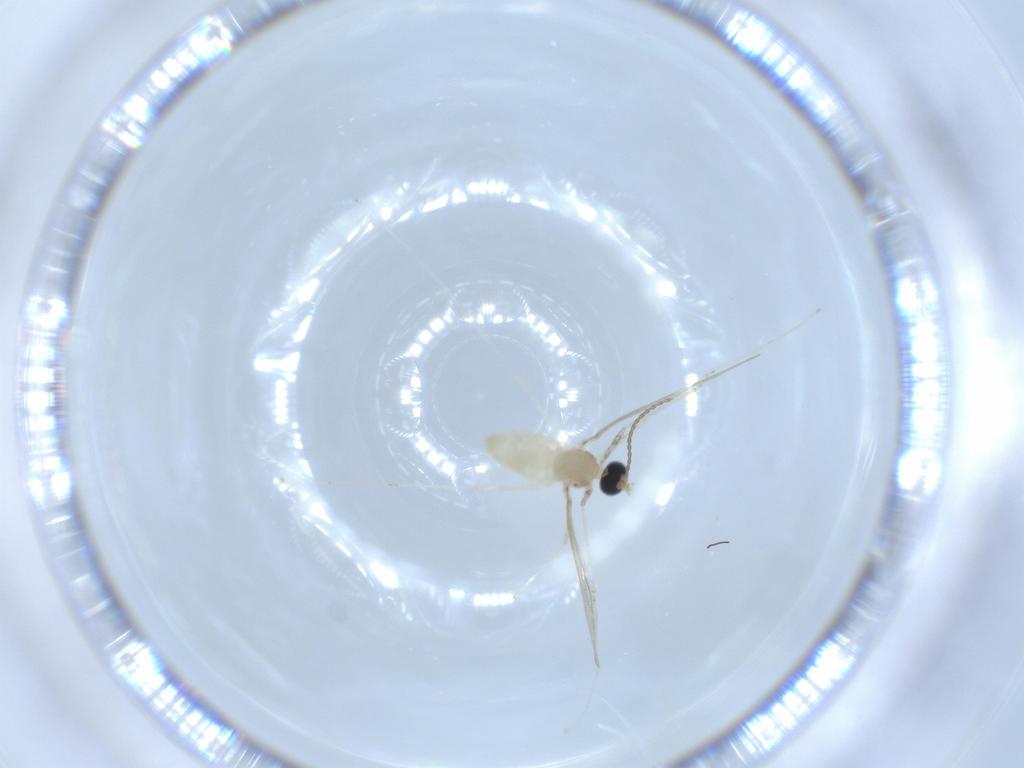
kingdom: Animalia
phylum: Arthropoda
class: Insecta
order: Diptera
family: Cecidomyiidae
